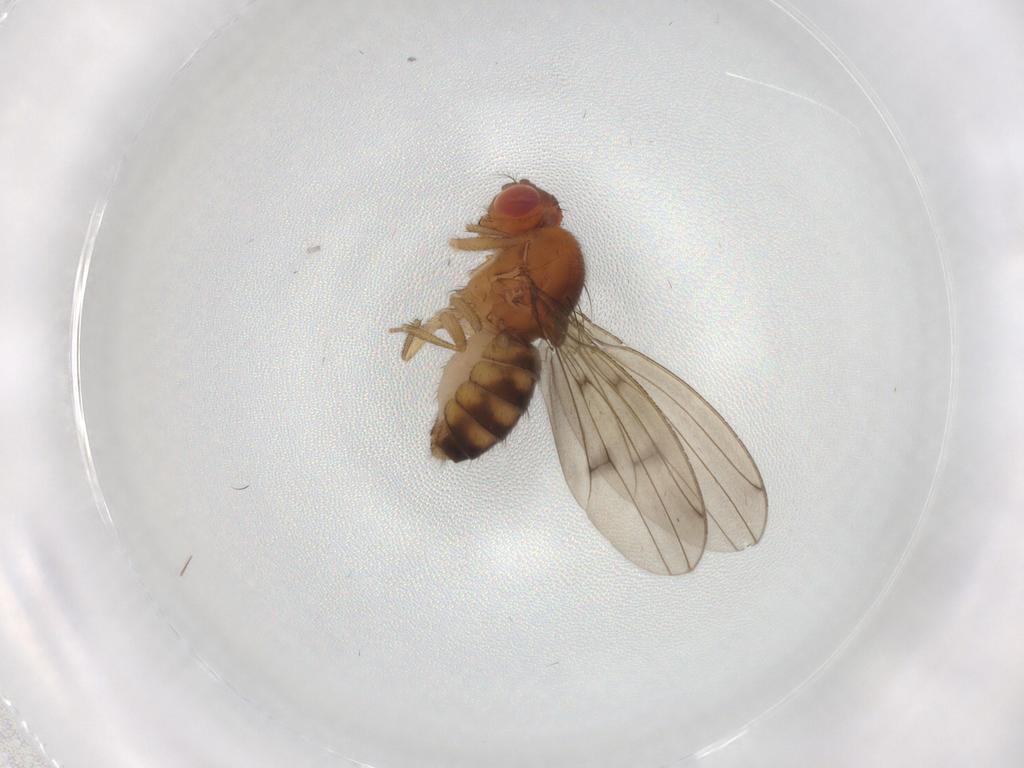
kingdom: Animalia
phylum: Arthropoda
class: Insecta
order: Diptera
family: Drosophilidae
